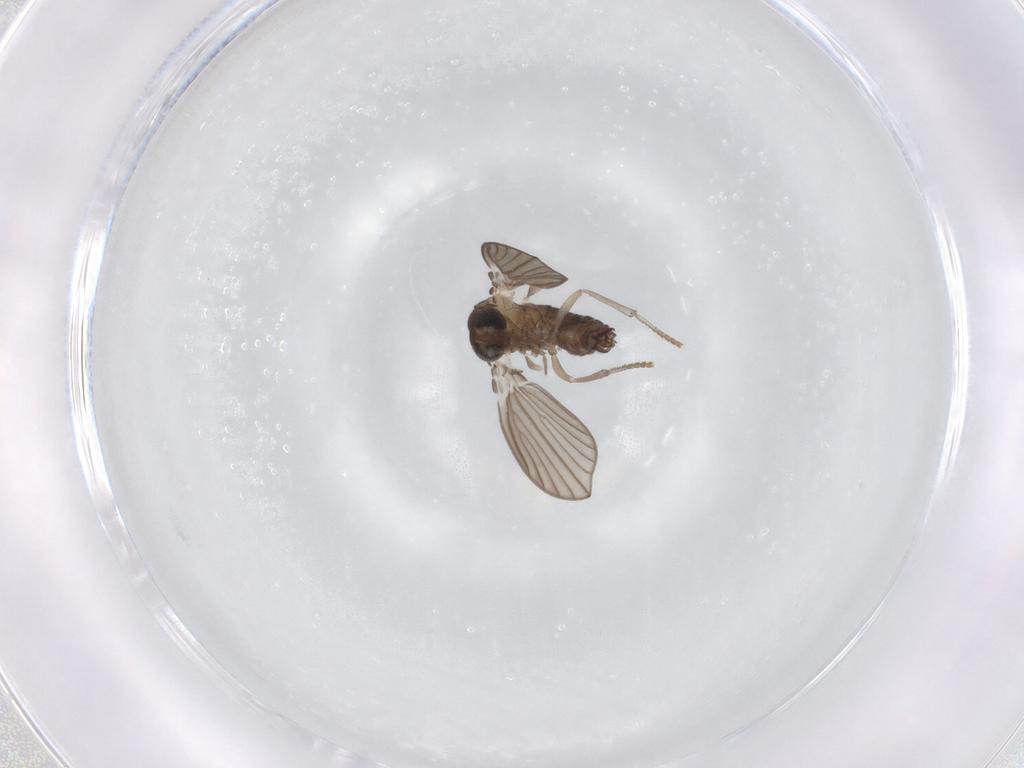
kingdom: Animalia
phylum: Arthropoda
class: Insecta
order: Diptera
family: Psychodidae
